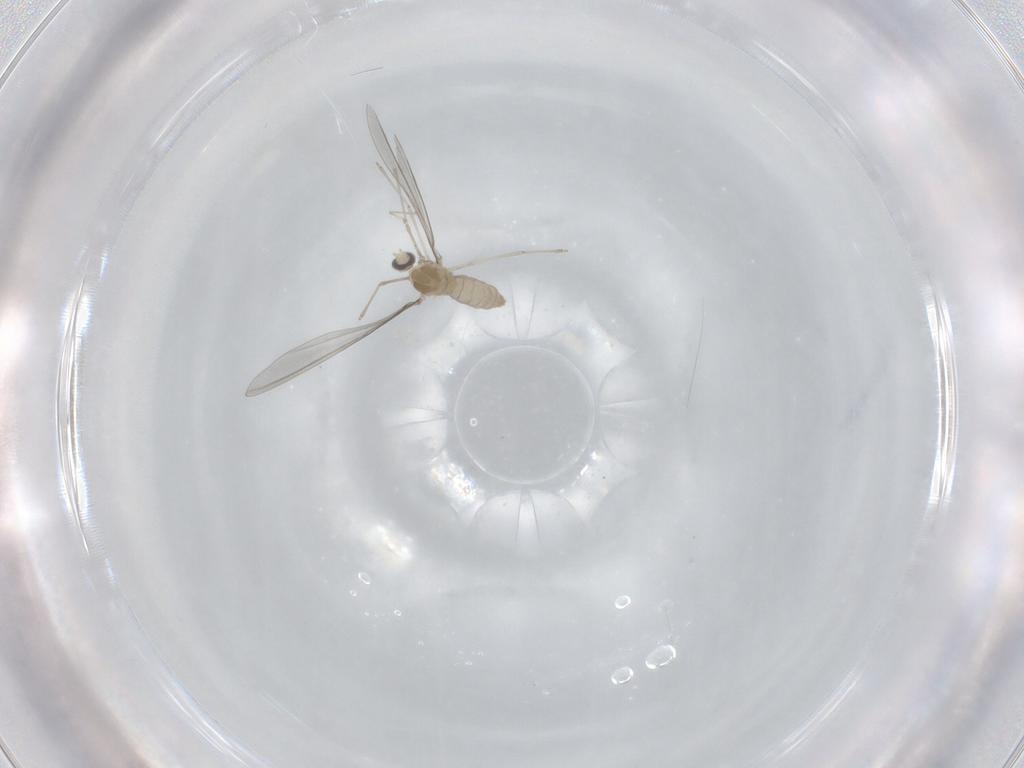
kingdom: Animalia
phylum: Arthropoda
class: Insecta
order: Diptera
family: Cecidomyiidae
